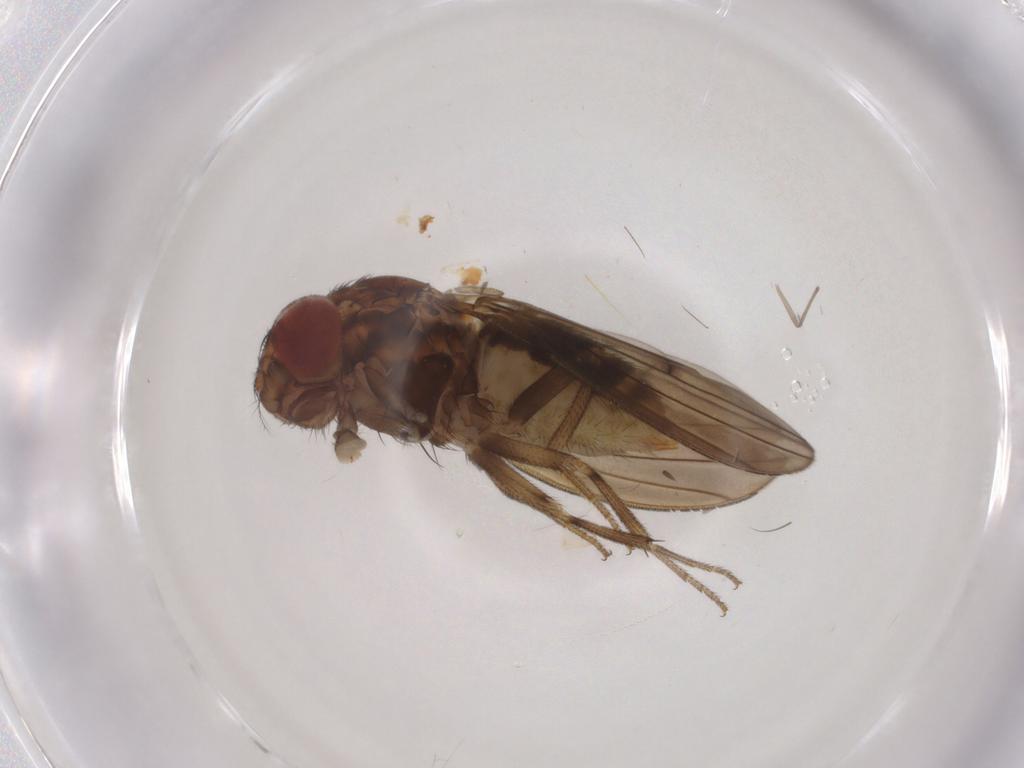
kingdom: Animalia
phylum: Arthropoda
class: Insecta
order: Diptera
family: Drosophilidae
